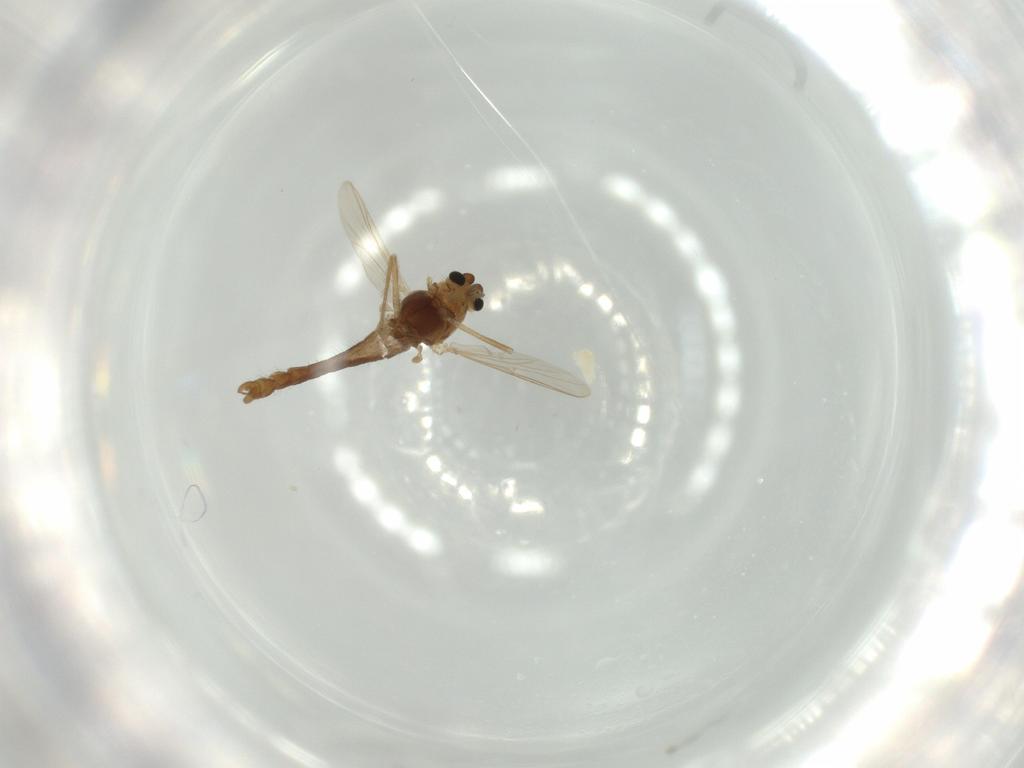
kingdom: Animalia
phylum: Arthropoda
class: Insecta
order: Diptera
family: Chironomidae
